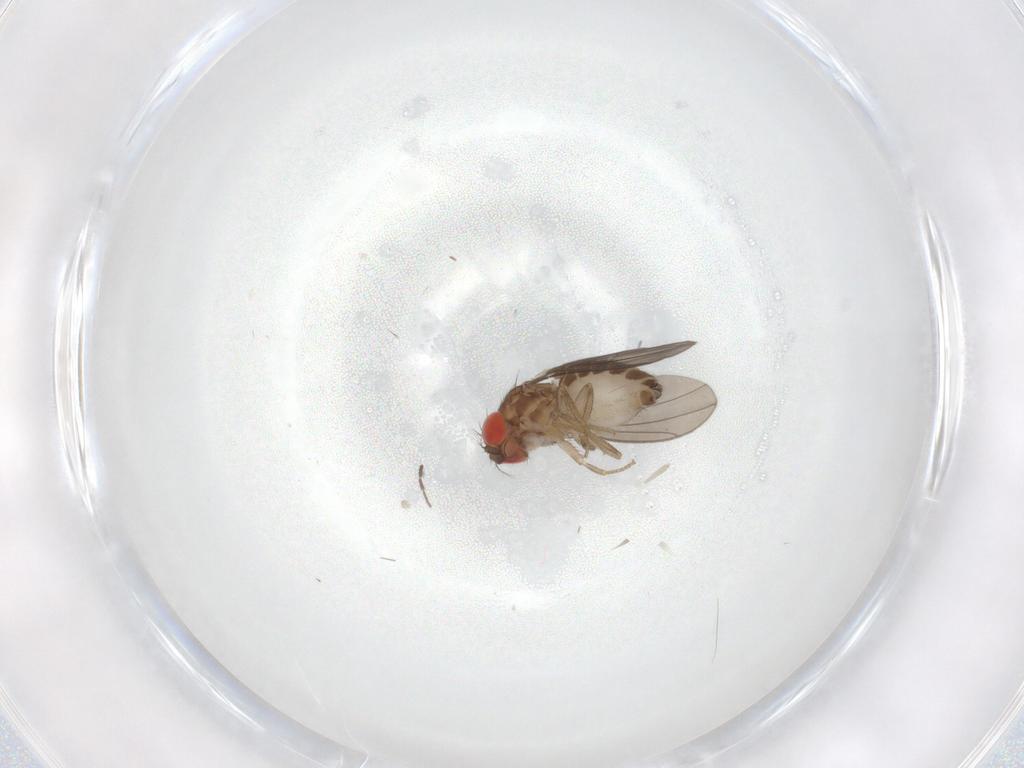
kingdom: Animalia
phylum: Arthropoda
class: Insecta
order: Diptera
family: Drosophilidae
